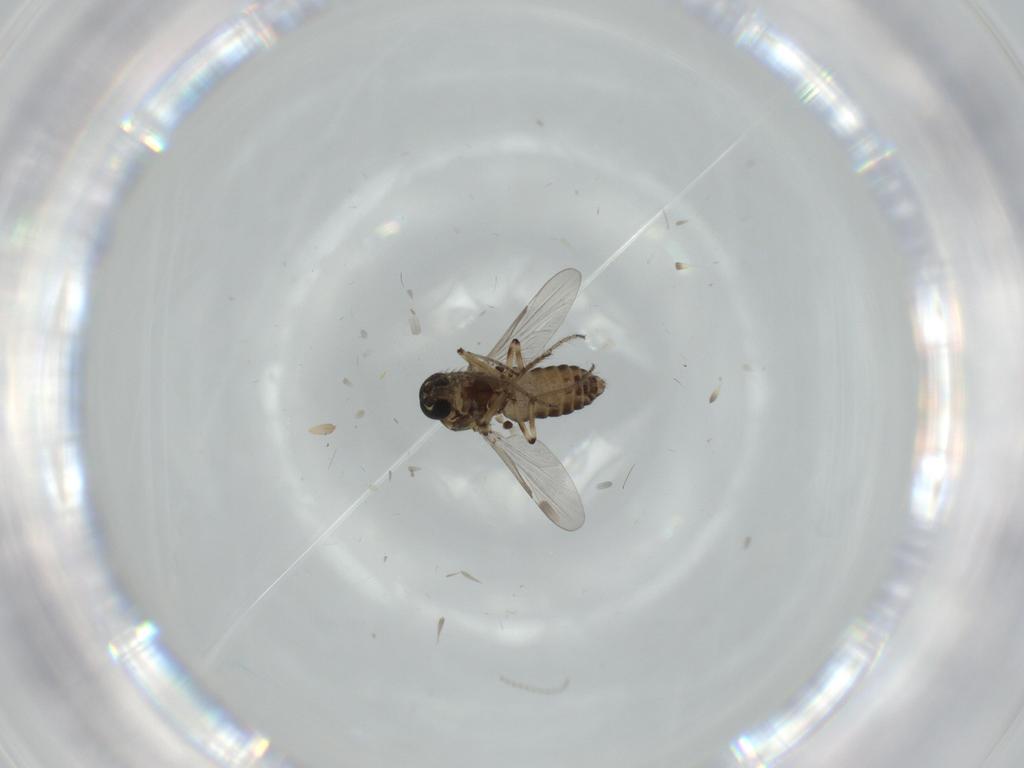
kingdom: Animalia
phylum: Arthropoda
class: Insecta
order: Diptera
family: Ceratopogonidae
